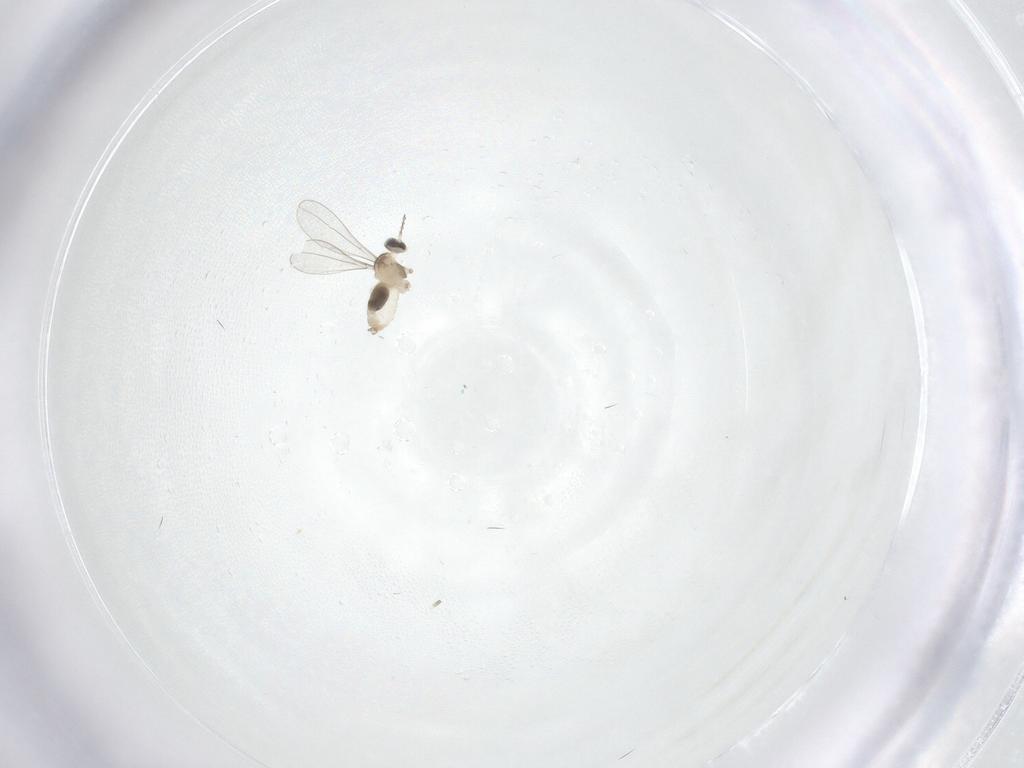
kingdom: Animalia
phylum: Arthropoda
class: Insecta
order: Diptera
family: Cecidomyiidae
